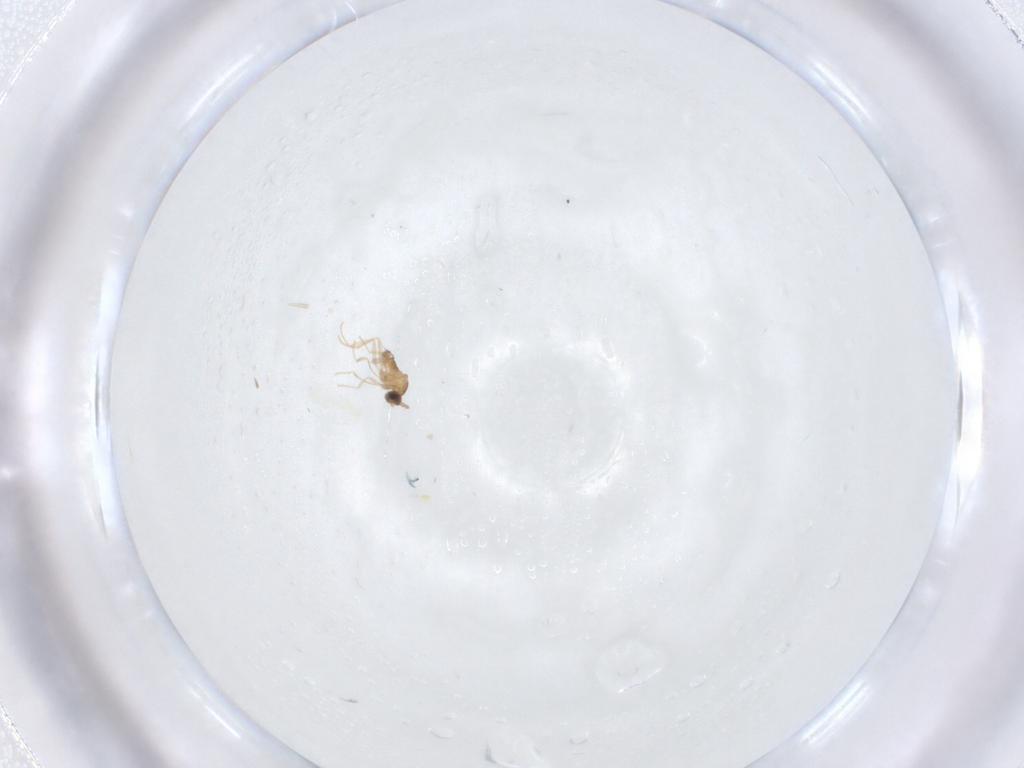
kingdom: Animalia
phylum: Arthropoda
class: Insecta
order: Diptera
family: Cecidomyiidae
